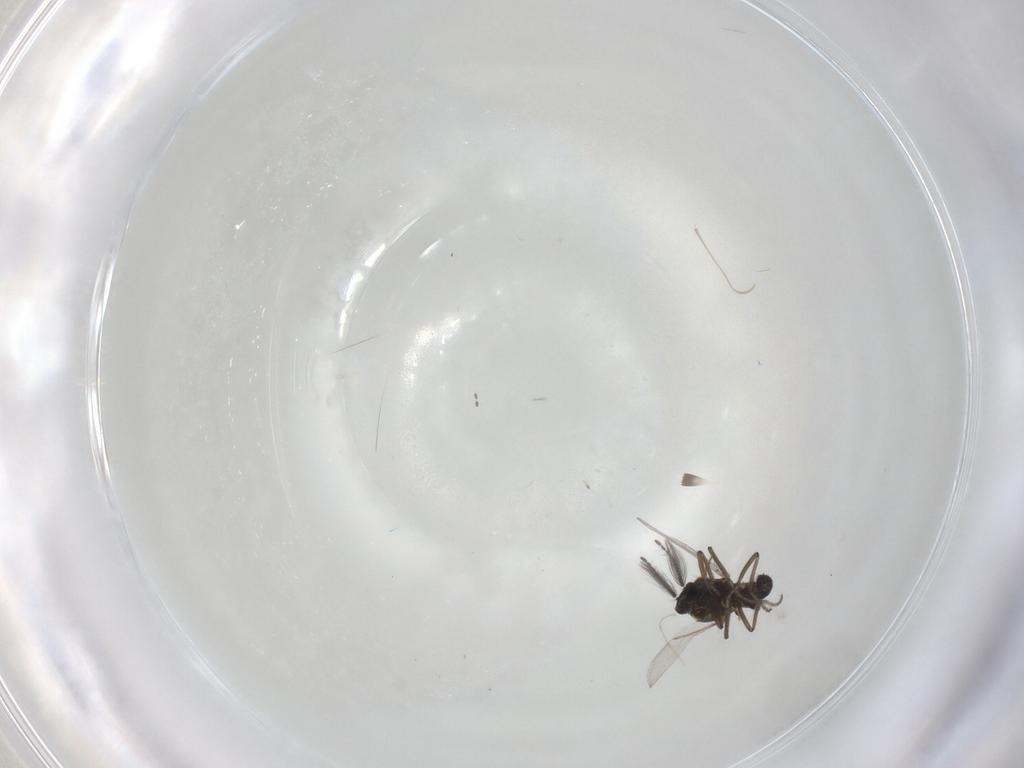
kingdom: Animalia
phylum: Arthropoda
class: Insecta
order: Diptera
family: Ceratopogonidae
